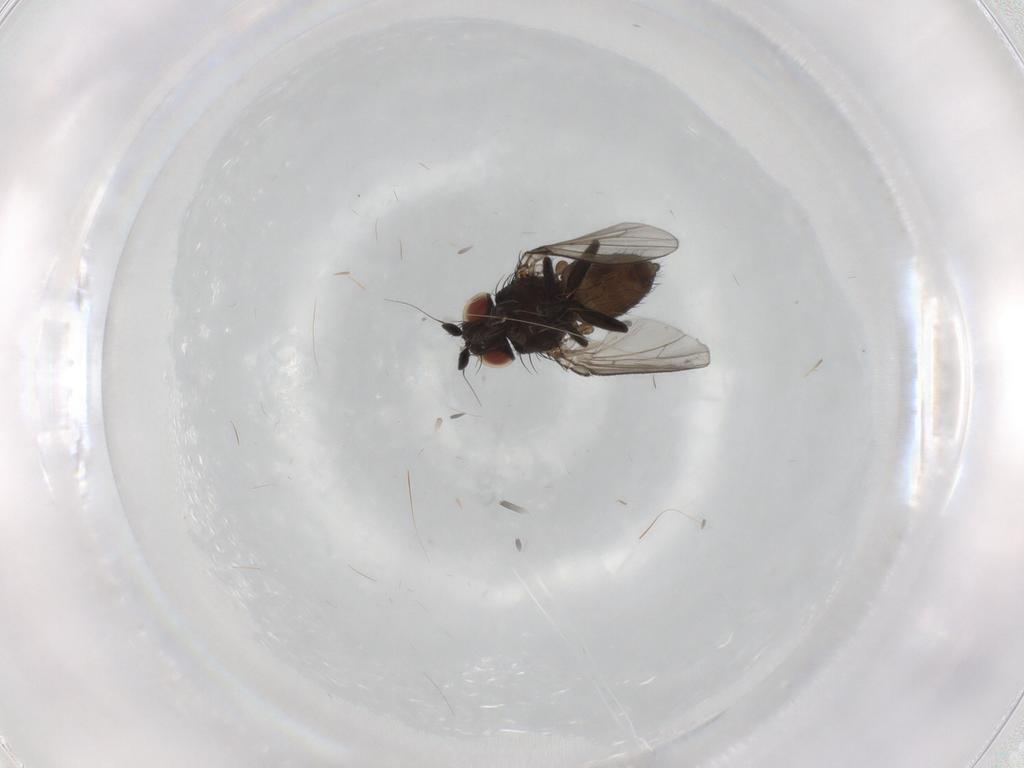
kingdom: Animalia
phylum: Arthropoda
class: Insecta
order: Diptera
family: Milichiidae
